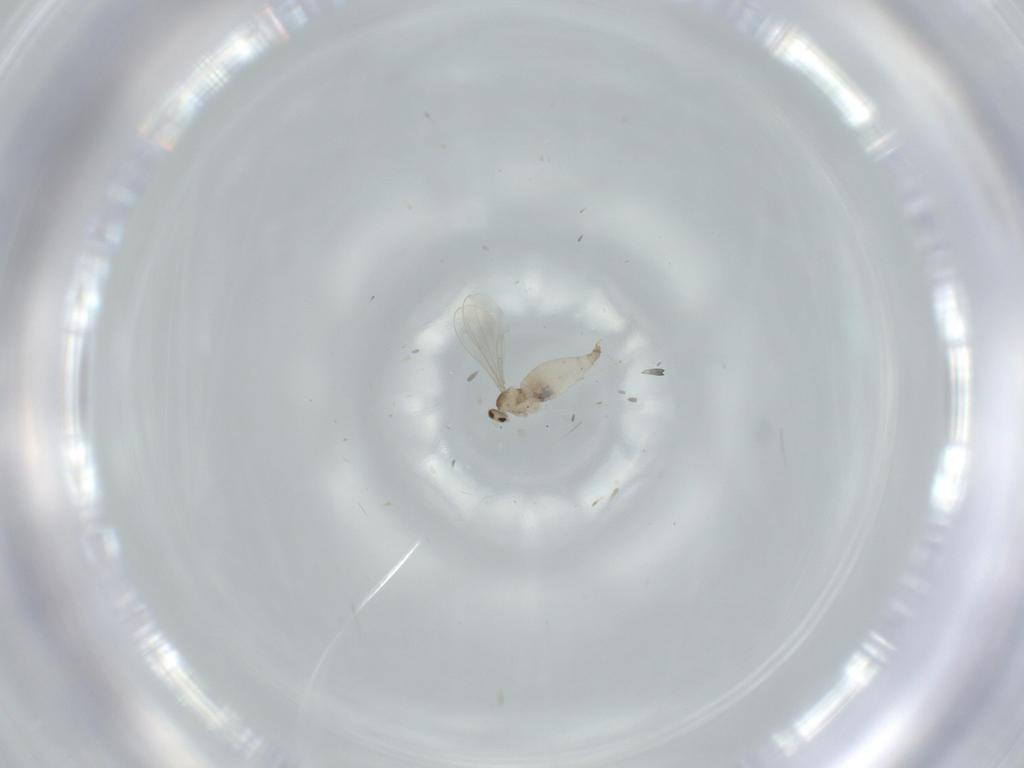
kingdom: Animalia
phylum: Arthropoda
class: Insecta
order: Diptera
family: Cecidomyiidae
